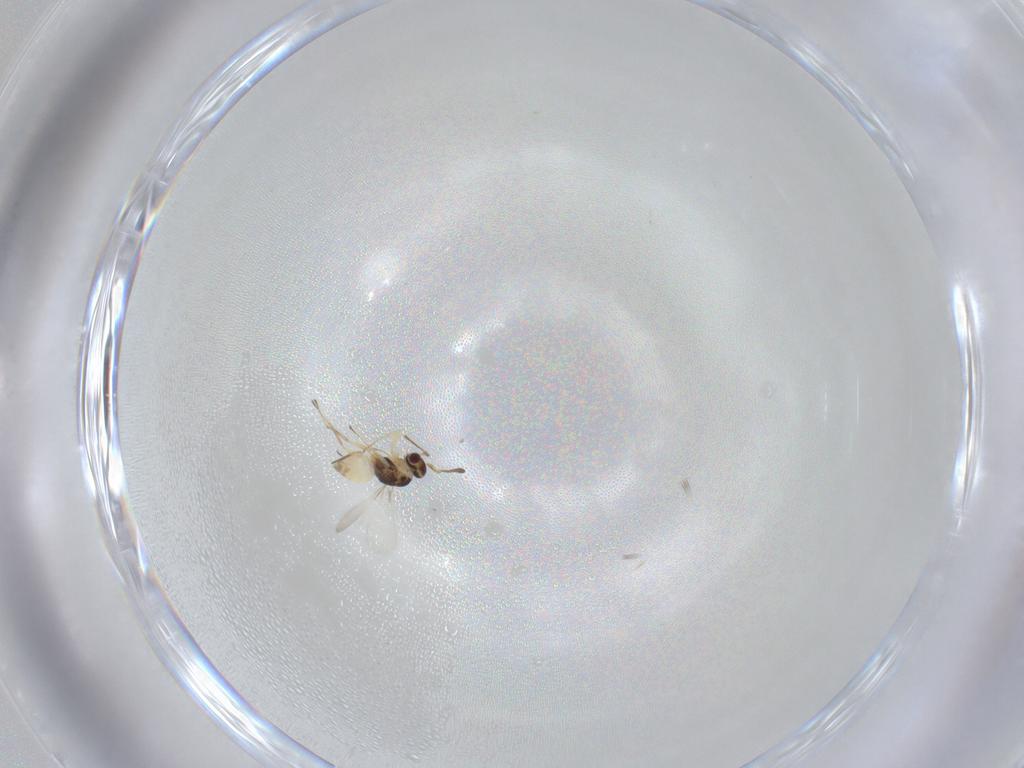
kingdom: Animalia
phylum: Arthropoda
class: Insecta
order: Hymenoptera
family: Mymaridae
